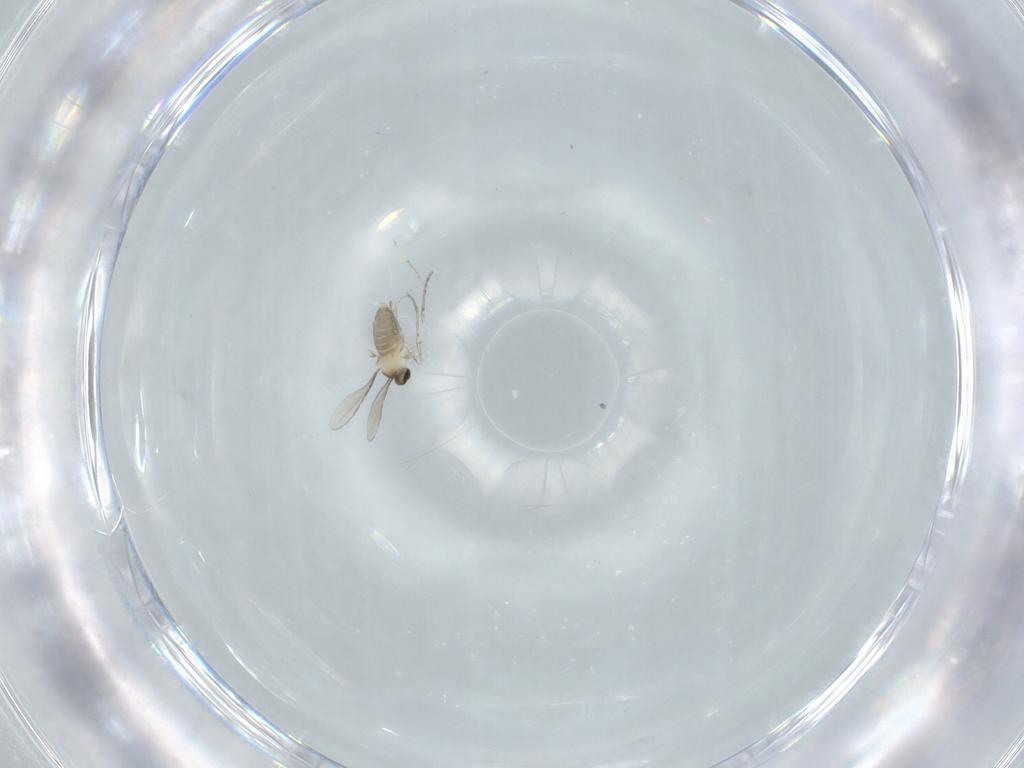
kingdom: Animalia
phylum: Arthropoda
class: Insecta
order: Diptera
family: Cecidomyiidae
